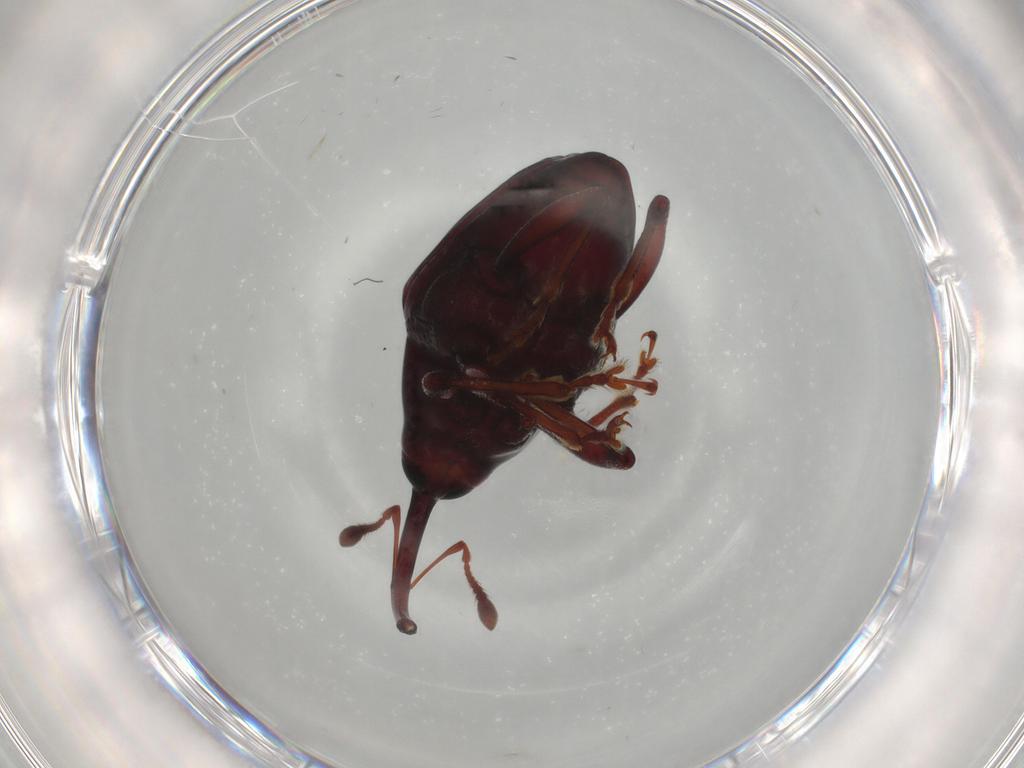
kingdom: Animalia
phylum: Arthropoda
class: Insecta
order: Coleoptera
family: Curculionidae
